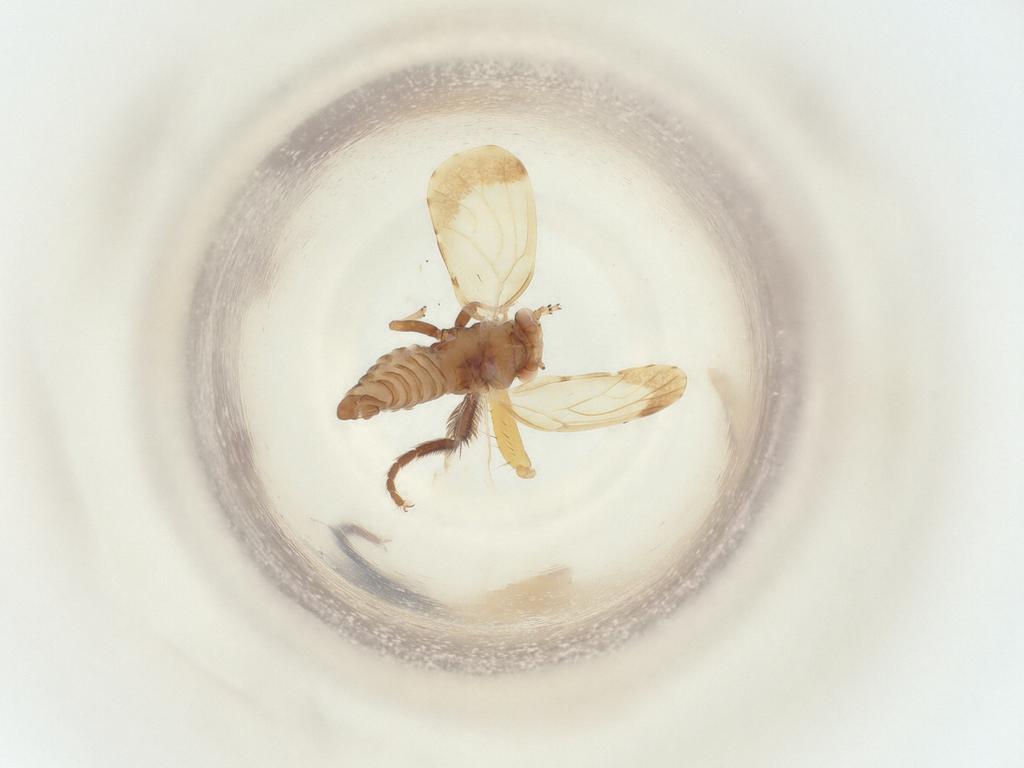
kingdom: Animalia
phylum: Arthropoda
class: Insecta
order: Hemiptera
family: Psyllidae
